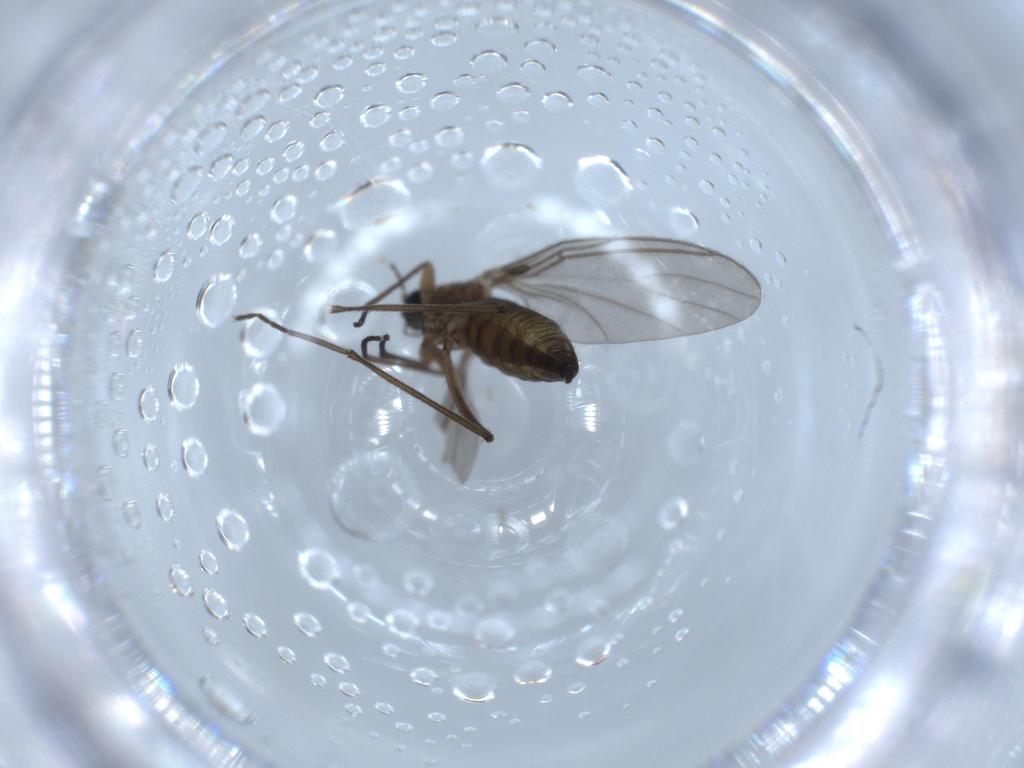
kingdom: Animalia
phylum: Arthropoda
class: Insecta
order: Diptera
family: Sciaridae
